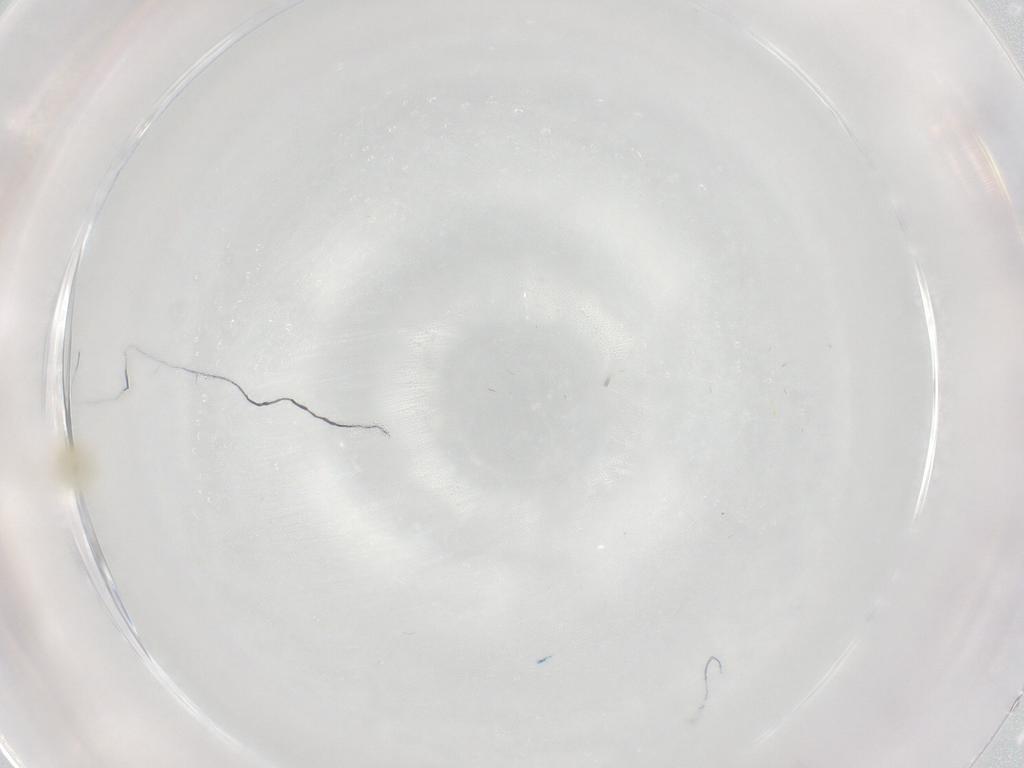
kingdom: Animalia
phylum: Arthropoda
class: Insecta
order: Hemiptera
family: Cicadellidae
